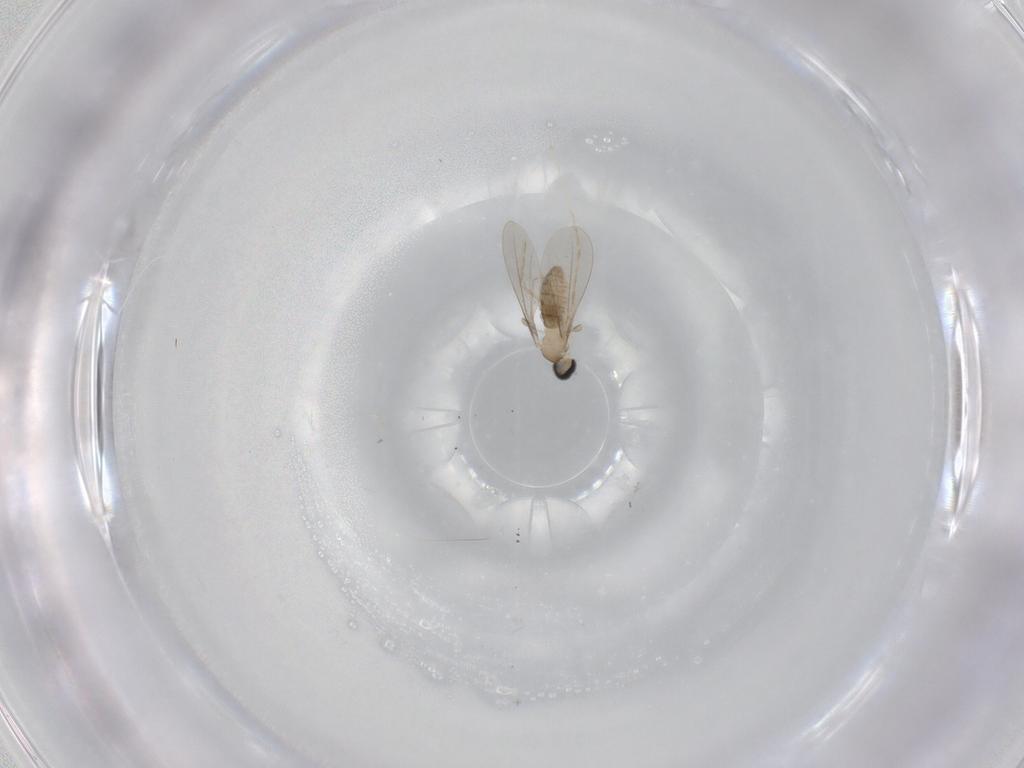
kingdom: Animalia
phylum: Arthropoda
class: Insecta
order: Diptera
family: Cecidomyiidae
